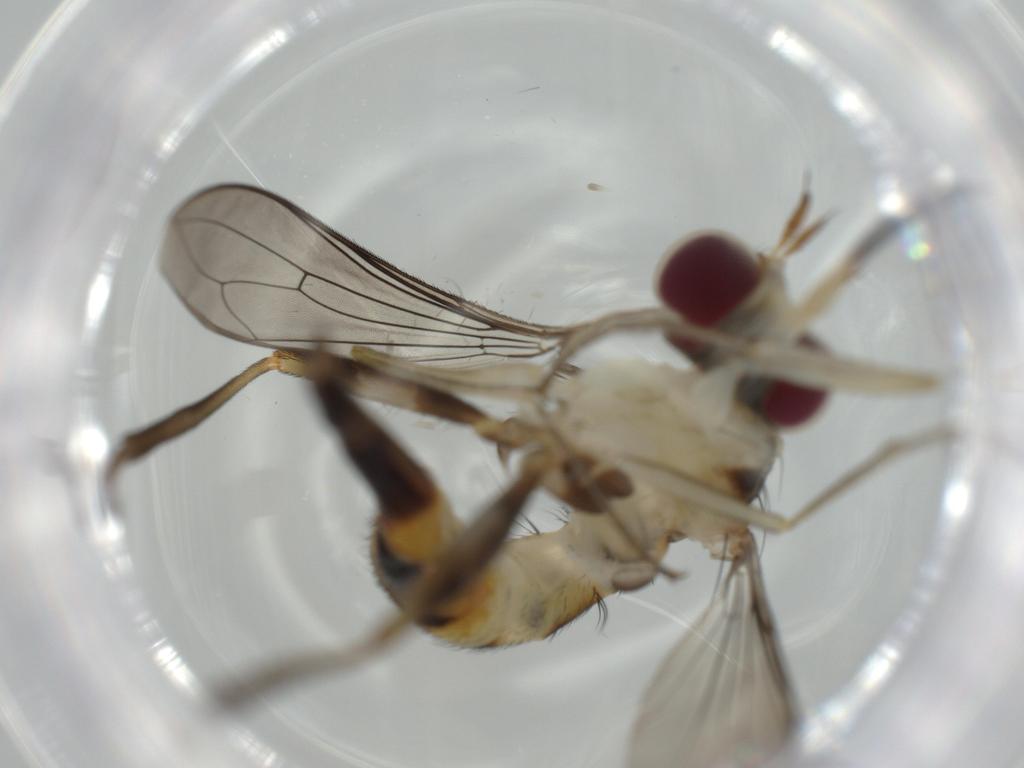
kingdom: Animalia
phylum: Arthropoda
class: Insecta
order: Diptera
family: Conopidae
